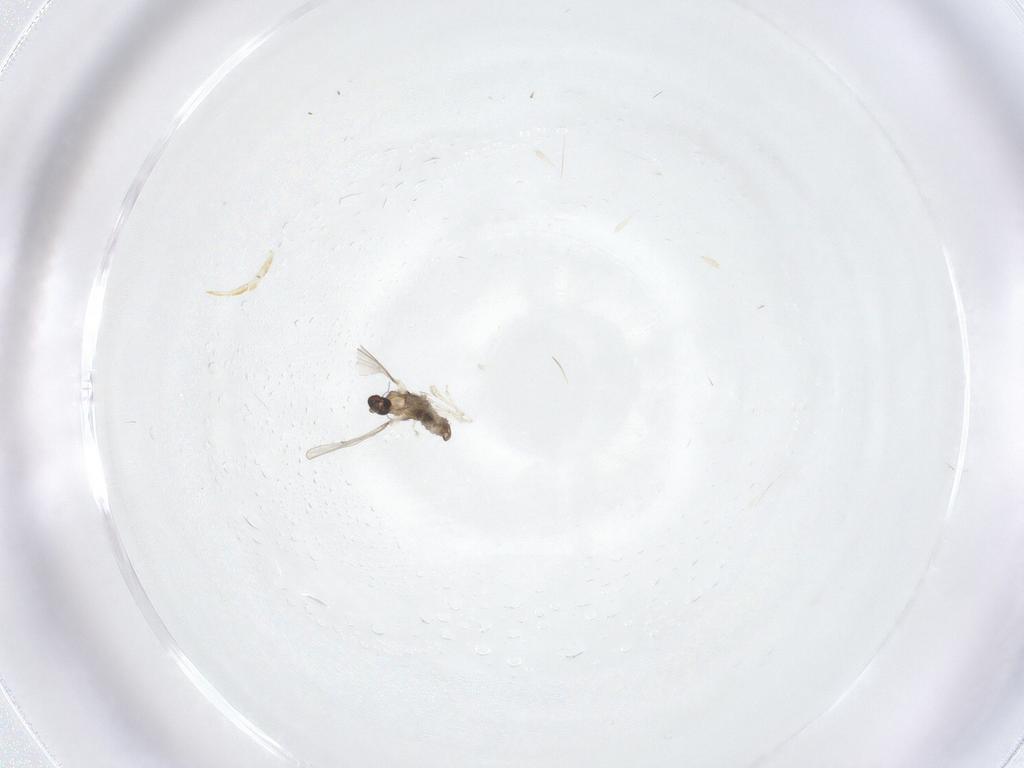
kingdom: Animalia
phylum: Arthropoda
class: Insecta
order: Diptera
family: Cecidomyiidae
